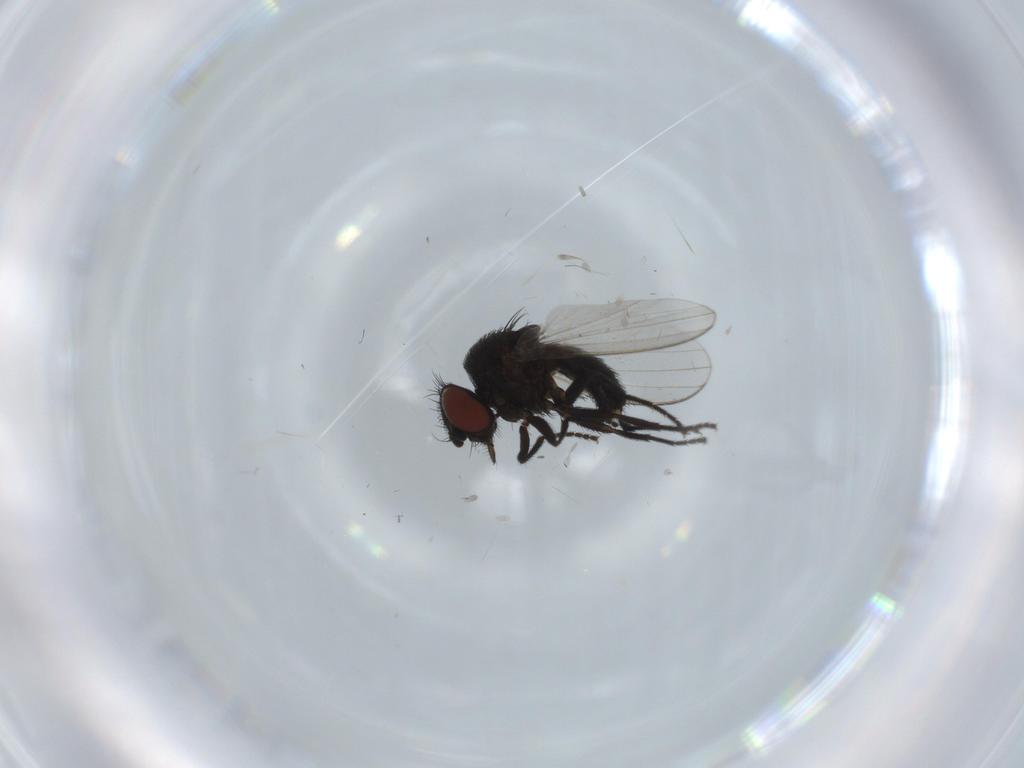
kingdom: Animalia
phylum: Arthropoda
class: Insecta
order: Diptera
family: Milichiidae
